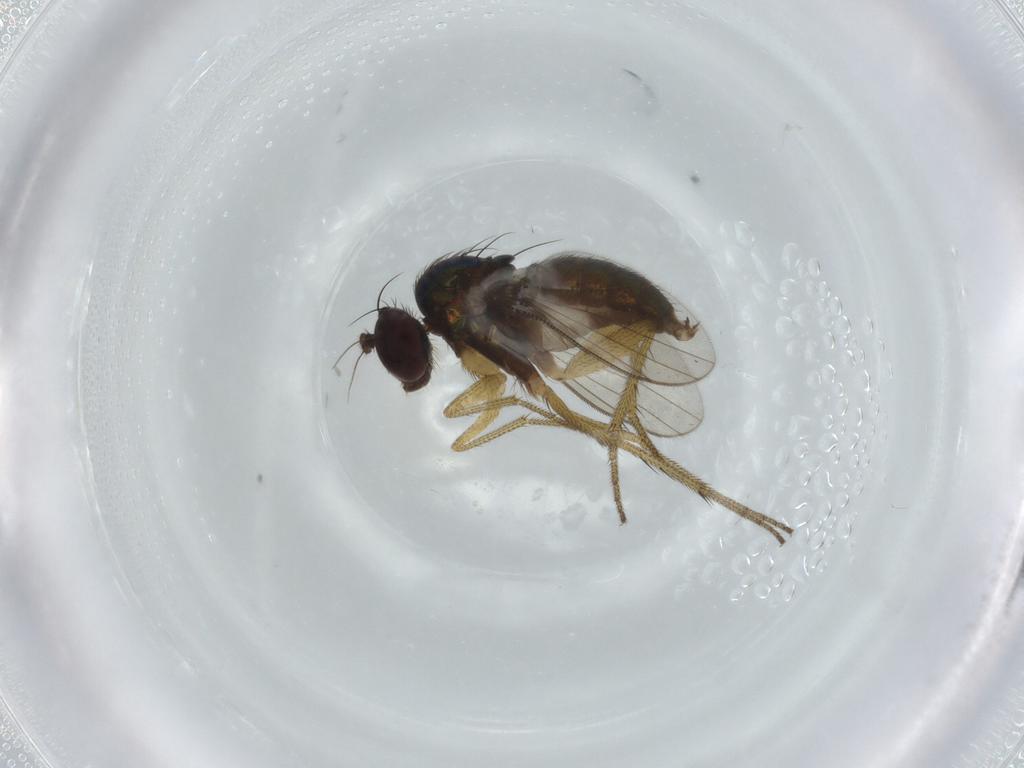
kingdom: Animalia
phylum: Arthropoda
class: Insecta
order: Diptera
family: Dolichopodidae
